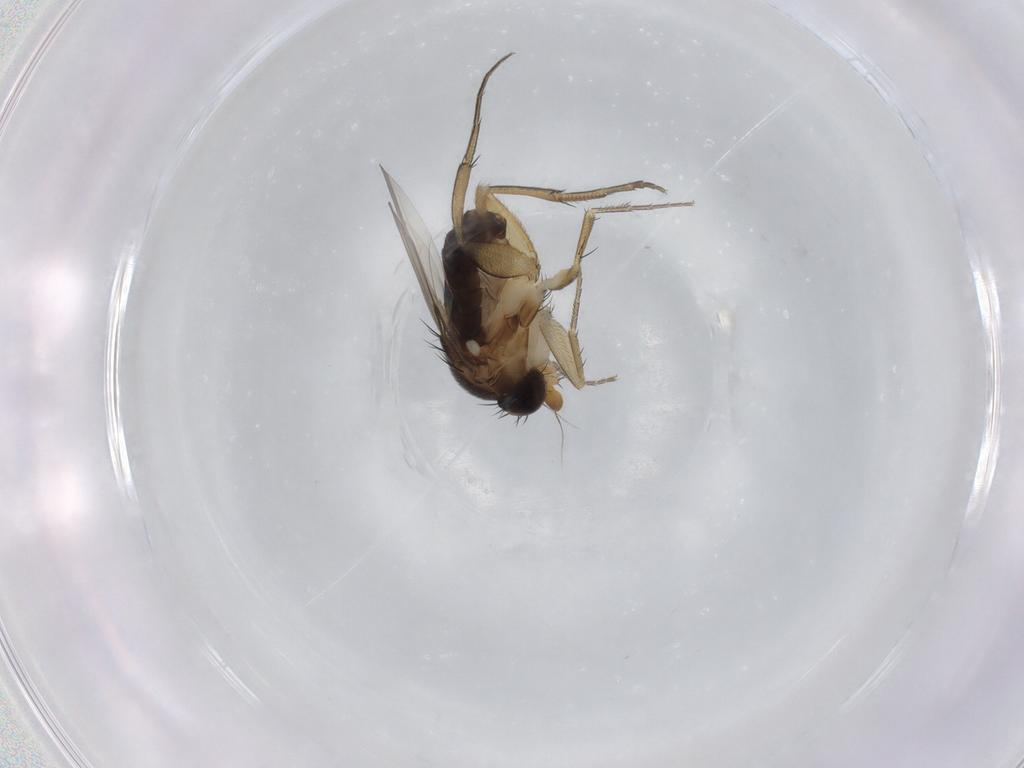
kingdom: Animalia
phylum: Arthropoda
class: Insecta
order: Diptera
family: Phoridae
